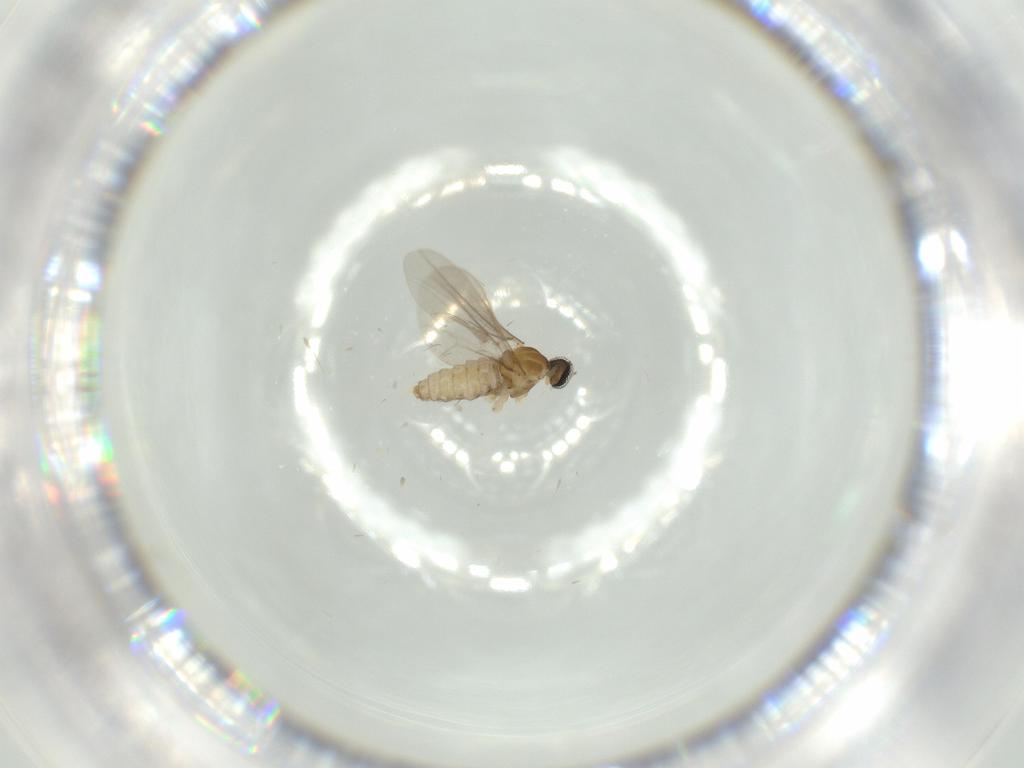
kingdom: Animalia
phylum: Arthropoda
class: Insecta
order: Diptera
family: Cecidomyiidae
